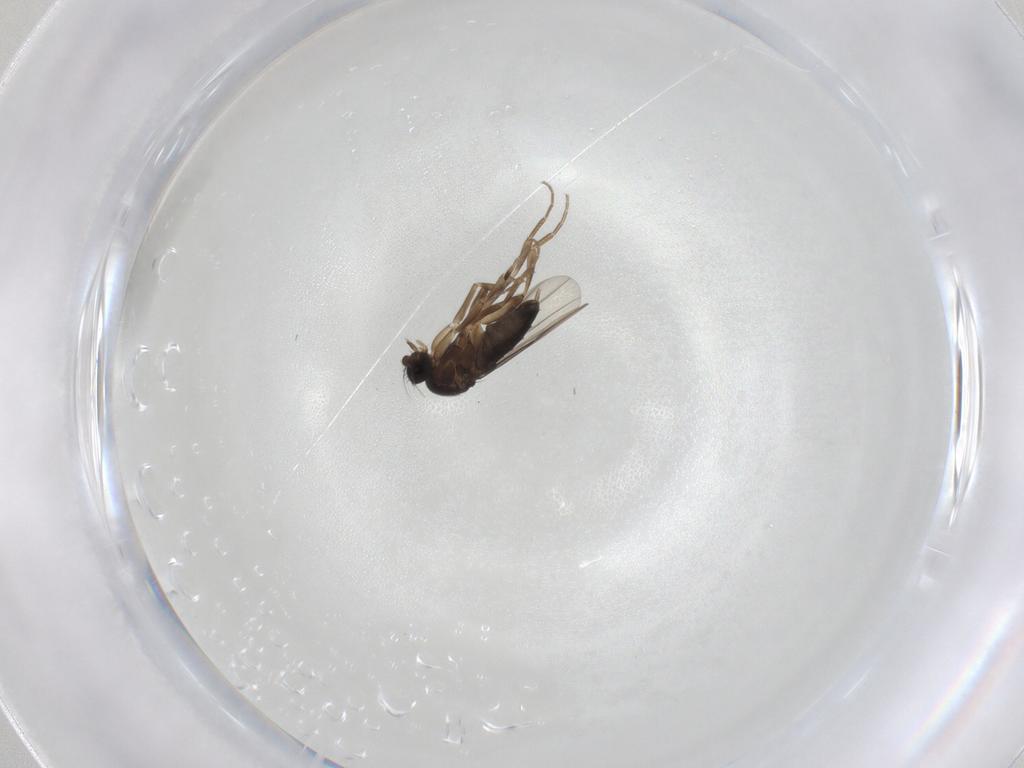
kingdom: Animalia
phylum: Arthropoda
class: Insecta
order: Diptera
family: Phoridae
